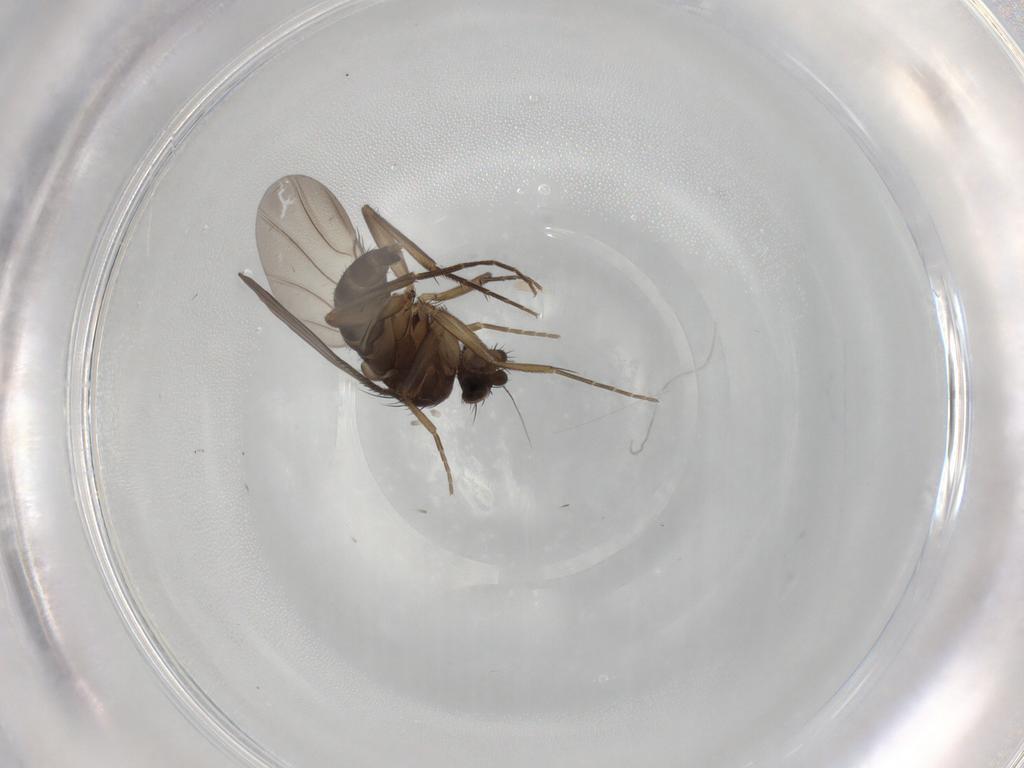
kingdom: Animalia
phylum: Arthropoda
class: Insecta
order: Diptera
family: Phoridae
